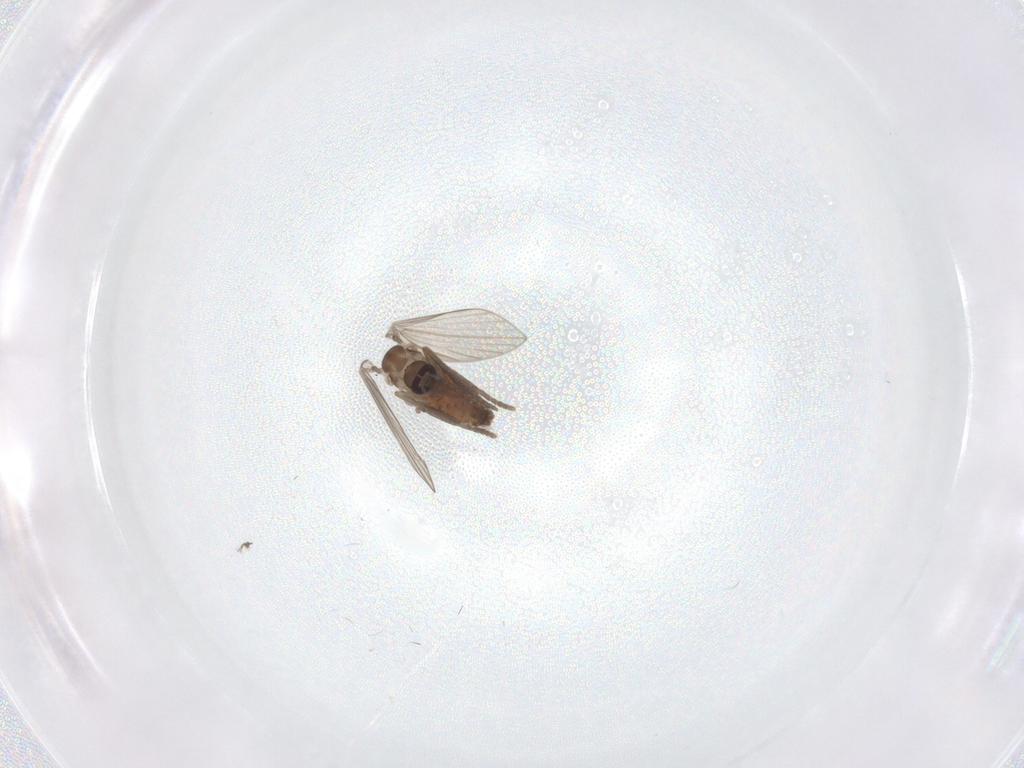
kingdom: Animalia
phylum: Arthropoda
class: Insecta
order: Diptera
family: Psychodidae
